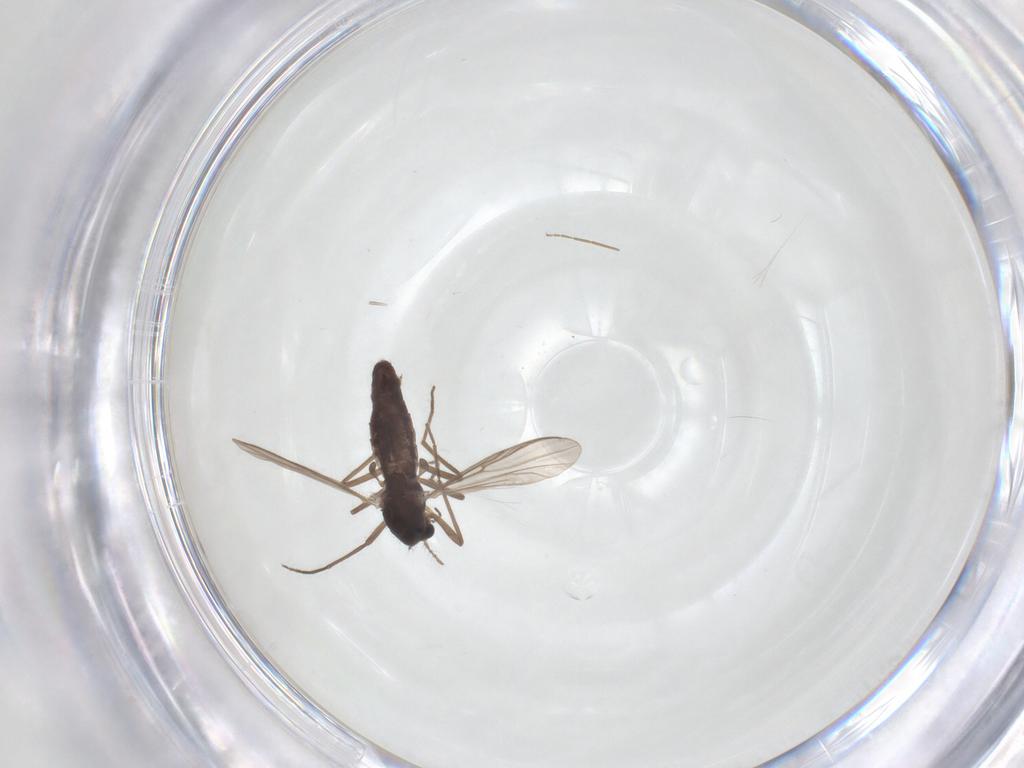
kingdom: Animalia
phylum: Arthropoda
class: Insecta
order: Diptera
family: Chironomidae
